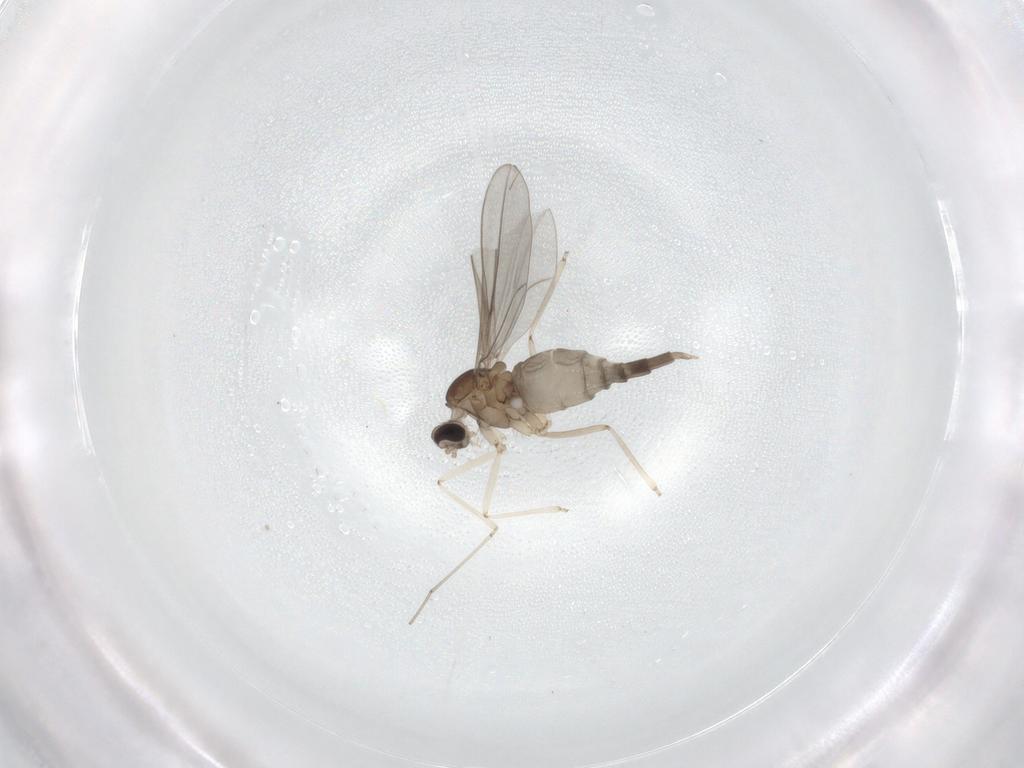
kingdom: Animalia
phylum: Arthropoda
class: Insecta
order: Diptera
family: Cecidomyiidae
